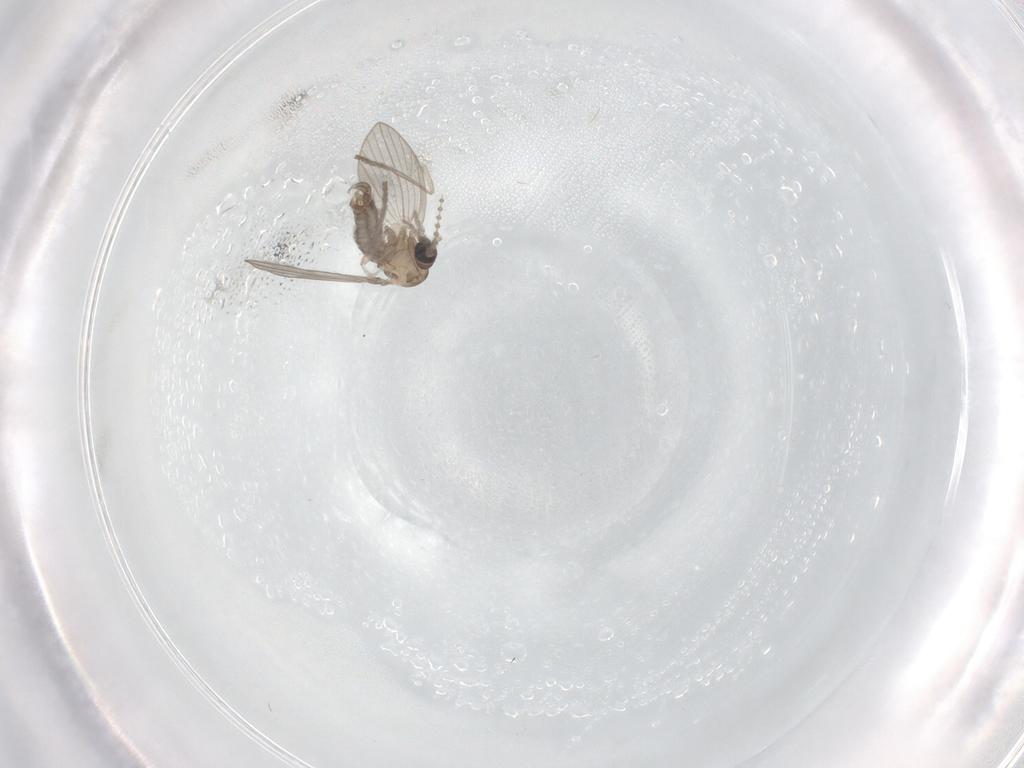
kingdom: Animalia
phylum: Arthropoda
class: Insecta
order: Diptera
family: Psychodidae
